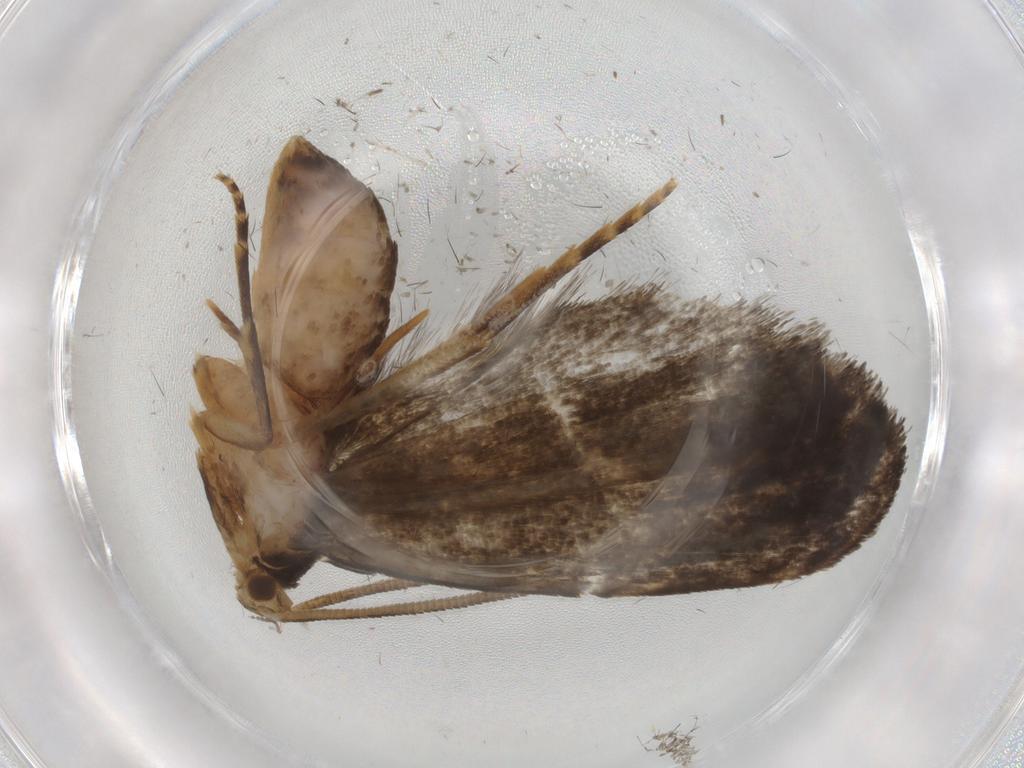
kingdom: Animalia
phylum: Arthropoda
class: Insecta
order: Lepidoptera
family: Dryadaulidae
